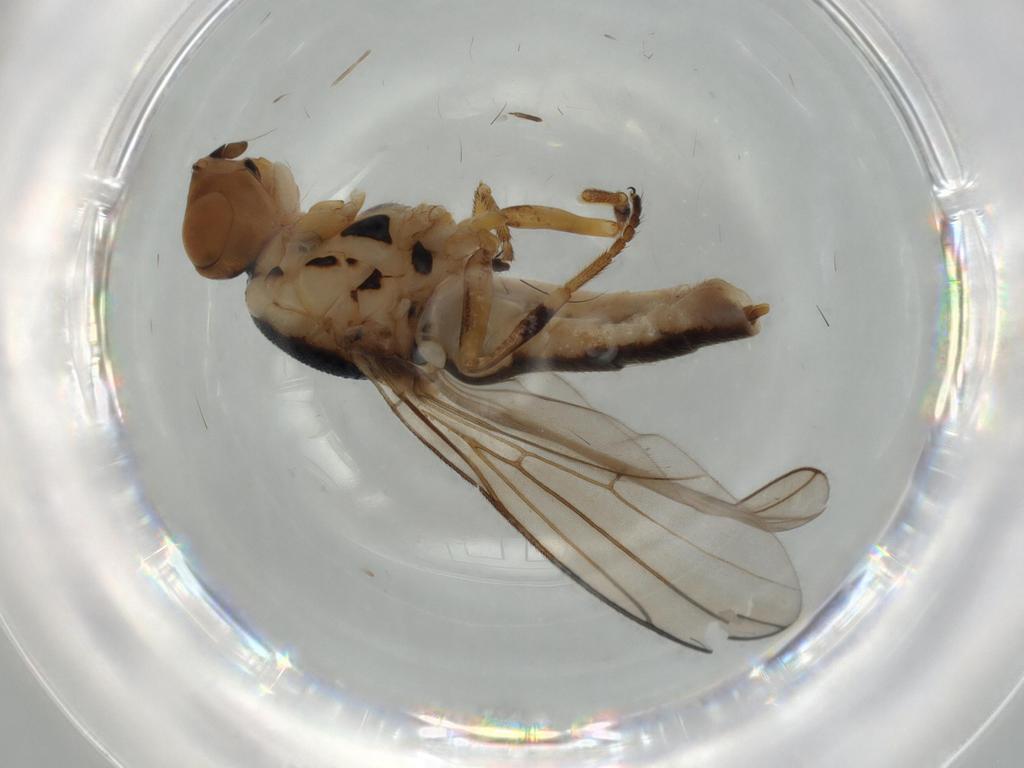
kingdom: Animalia
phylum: Arthropoda
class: Insecta
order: Diptera
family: Chloropidae
